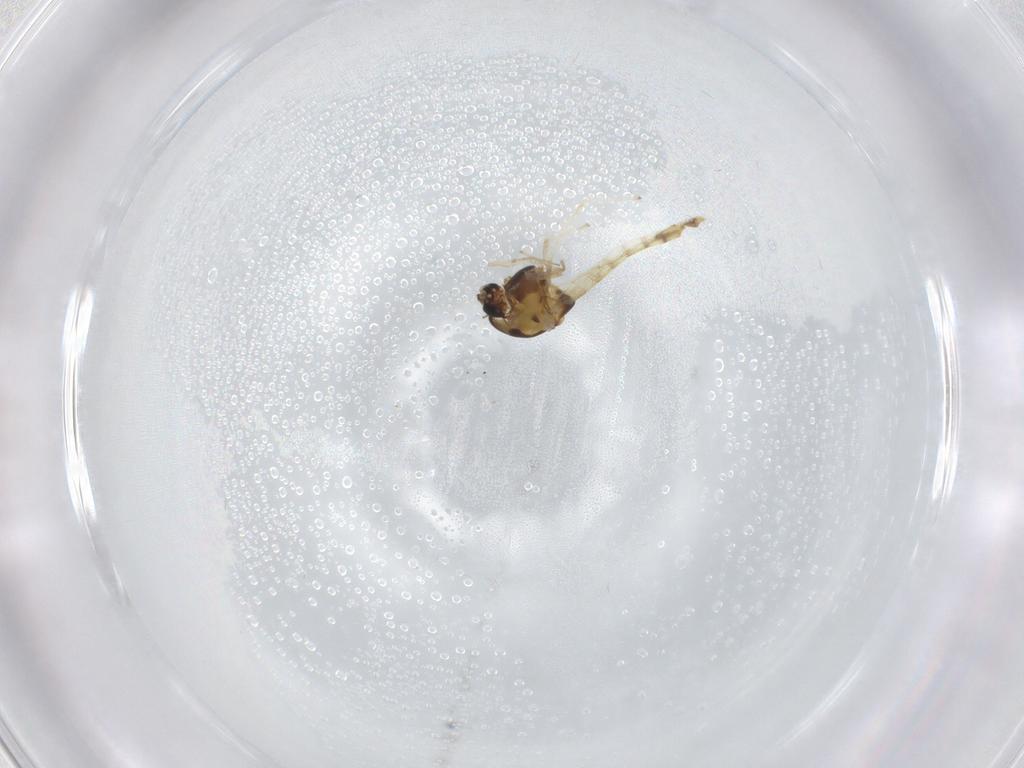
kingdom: Animalia
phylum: Arthropoda
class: Insecta
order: Diptera
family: Chironomidae
